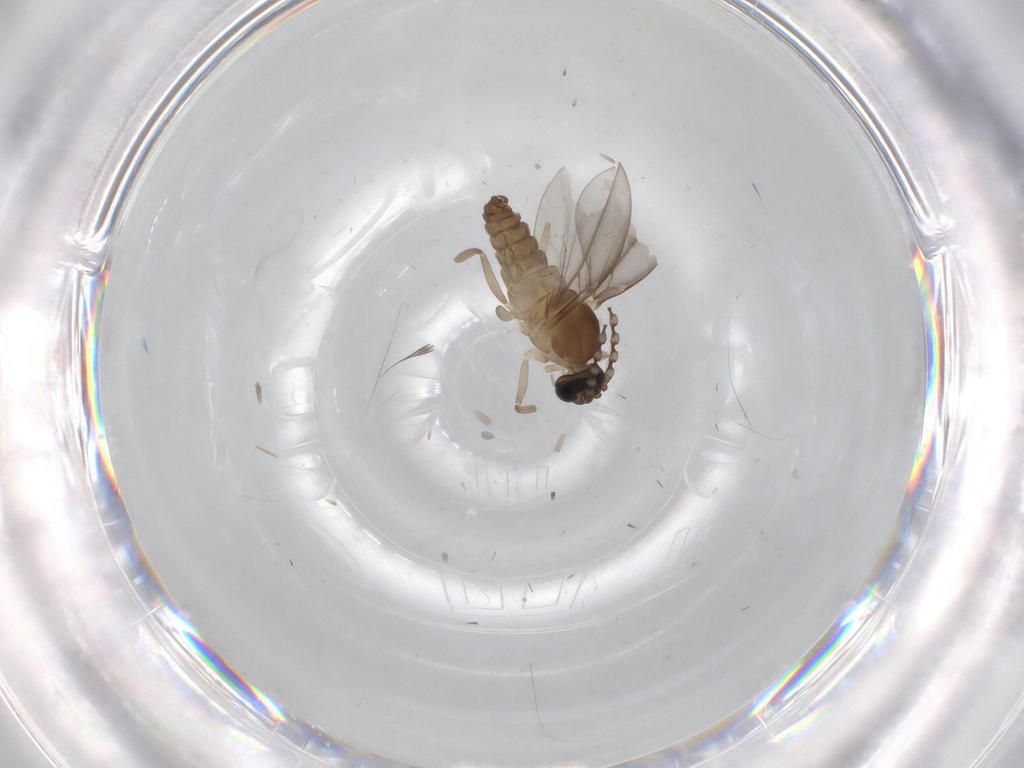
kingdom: Animalia
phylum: Arthropoda
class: Insecta
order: Diptera
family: Cecidomyiidae
